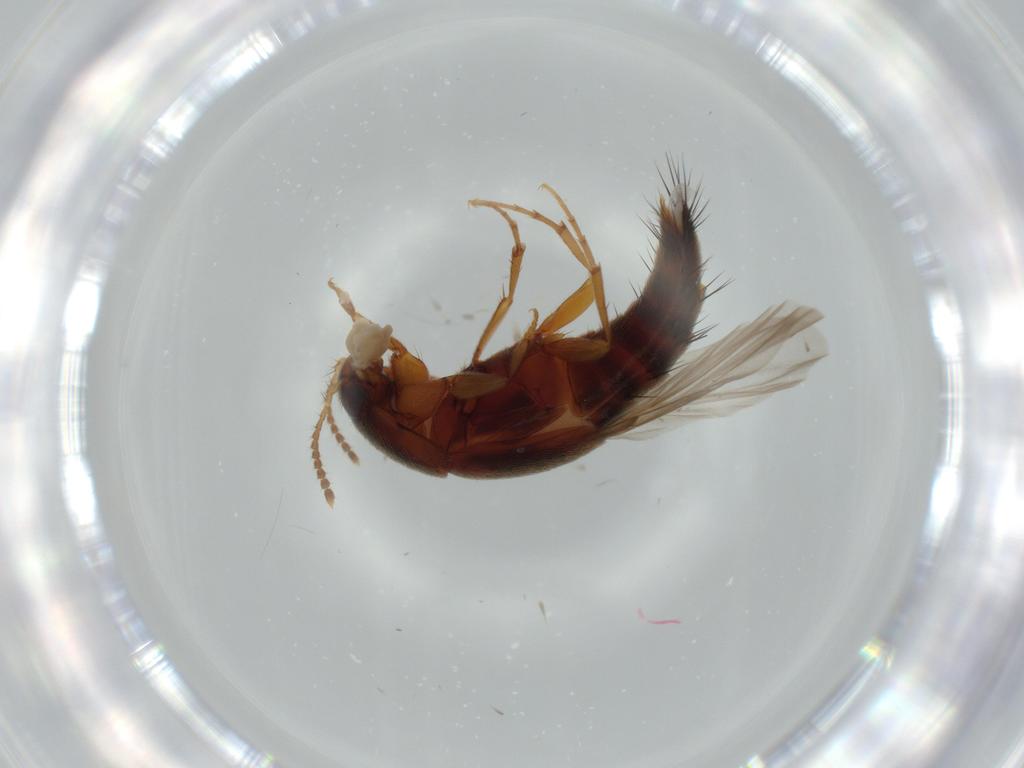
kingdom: Animalia
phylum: Arthropoda
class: Insecta
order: Coleoptera
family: Staphylinidae
